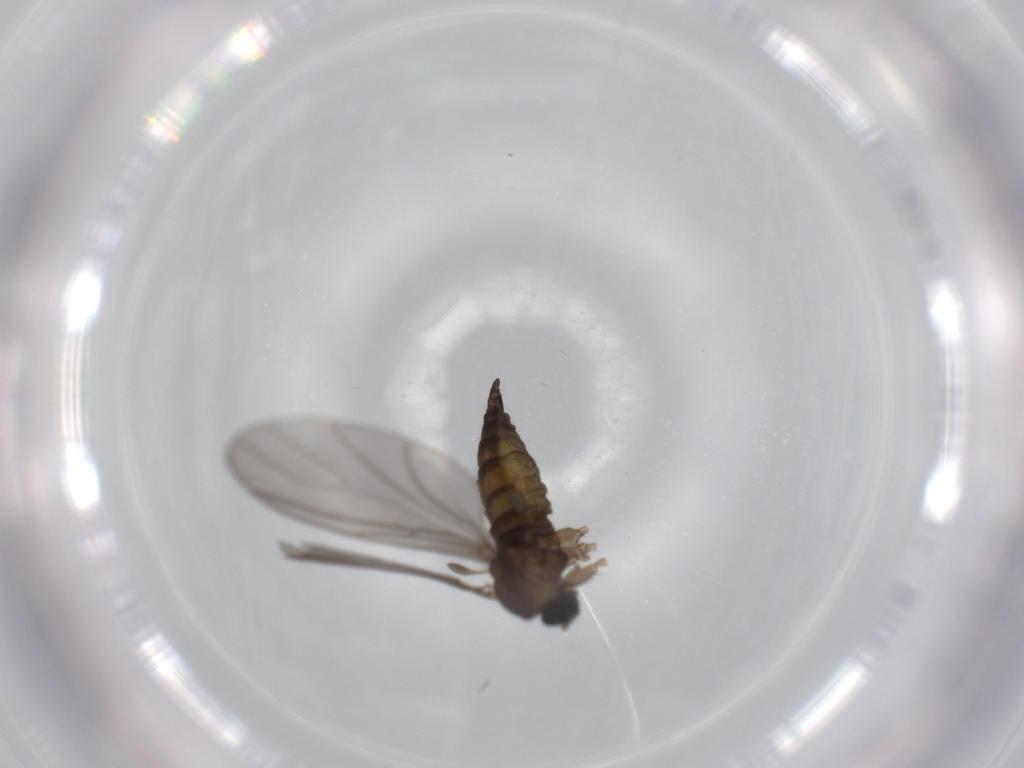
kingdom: Animalia
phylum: Arthropoda
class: Insecta
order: Diptera
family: Sciaridae
